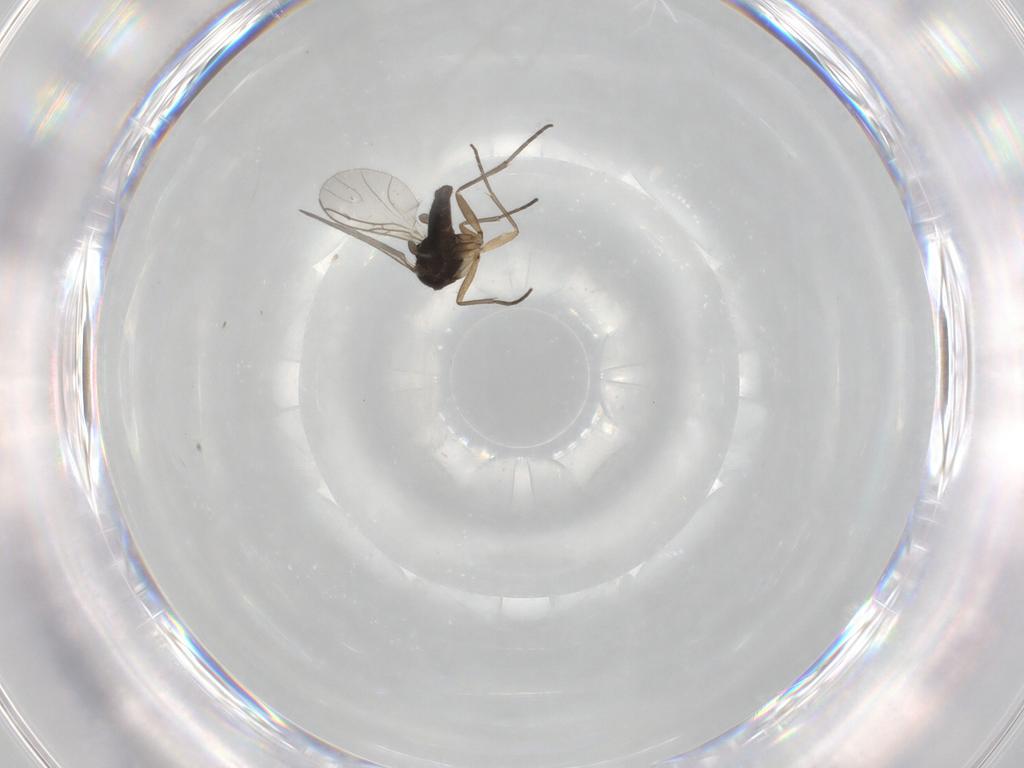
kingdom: Animalia
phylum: Arthropoda
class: Insecta
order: Diptera
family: Sciaridae
